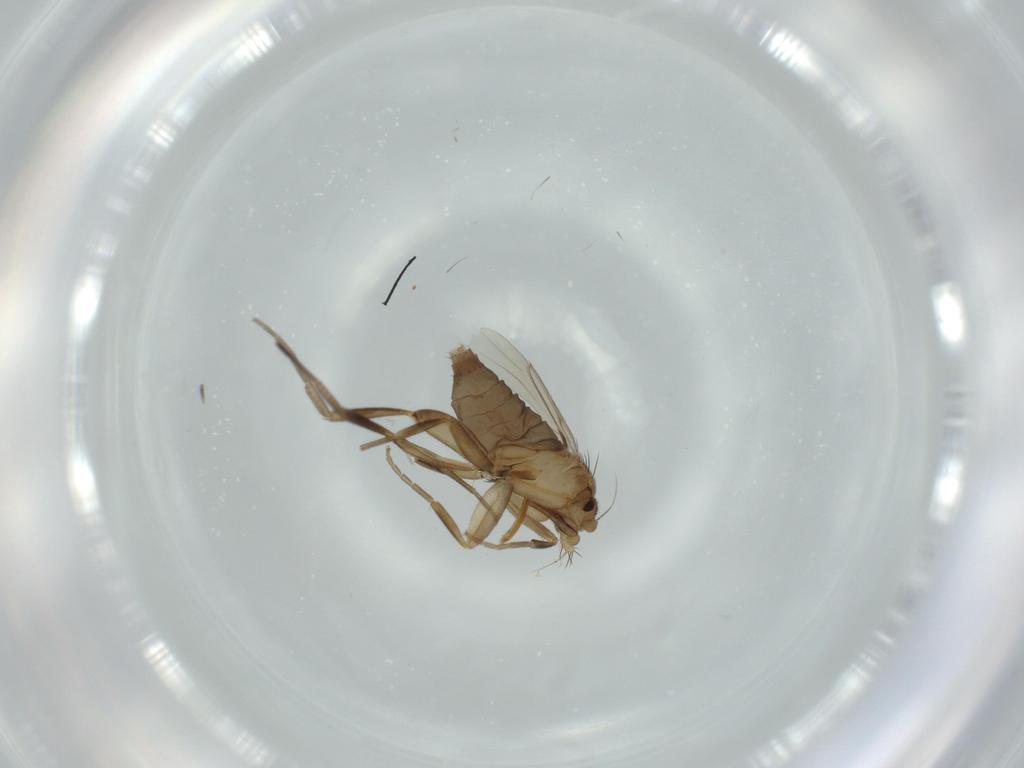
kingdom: Animalia
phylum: Arthropoda
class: Insecta
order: Diptera
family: Phoridae
